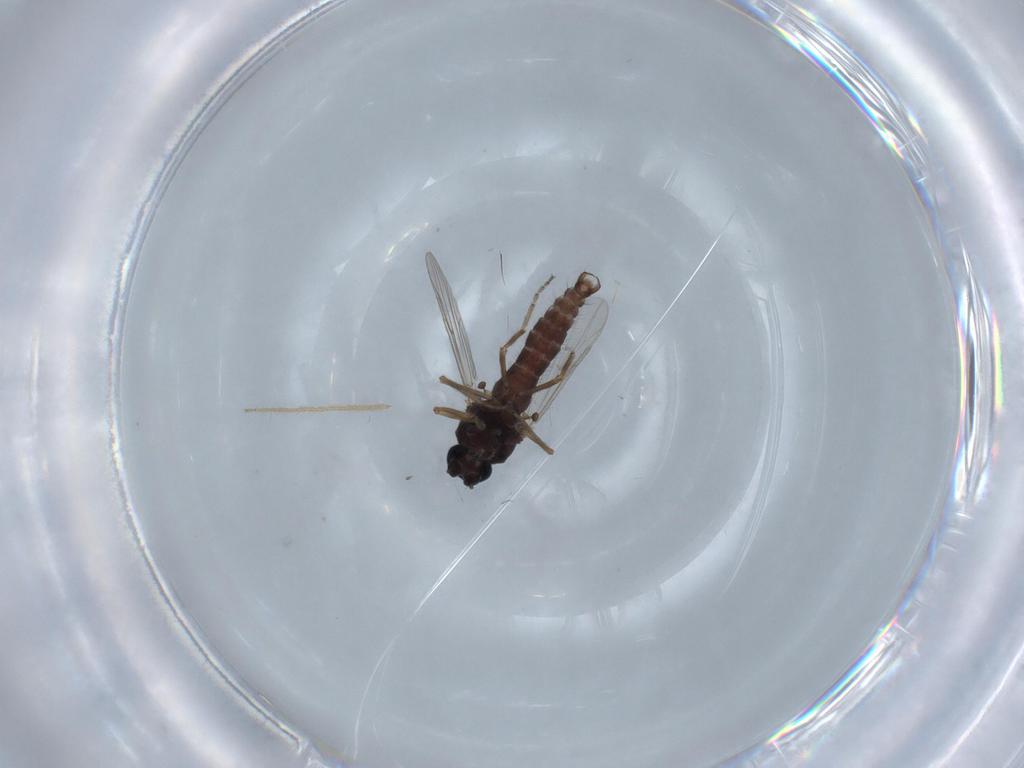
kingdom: Animalia
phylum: Arthropoda
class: Insecta
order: Diptera
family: Ceratopogonidae
